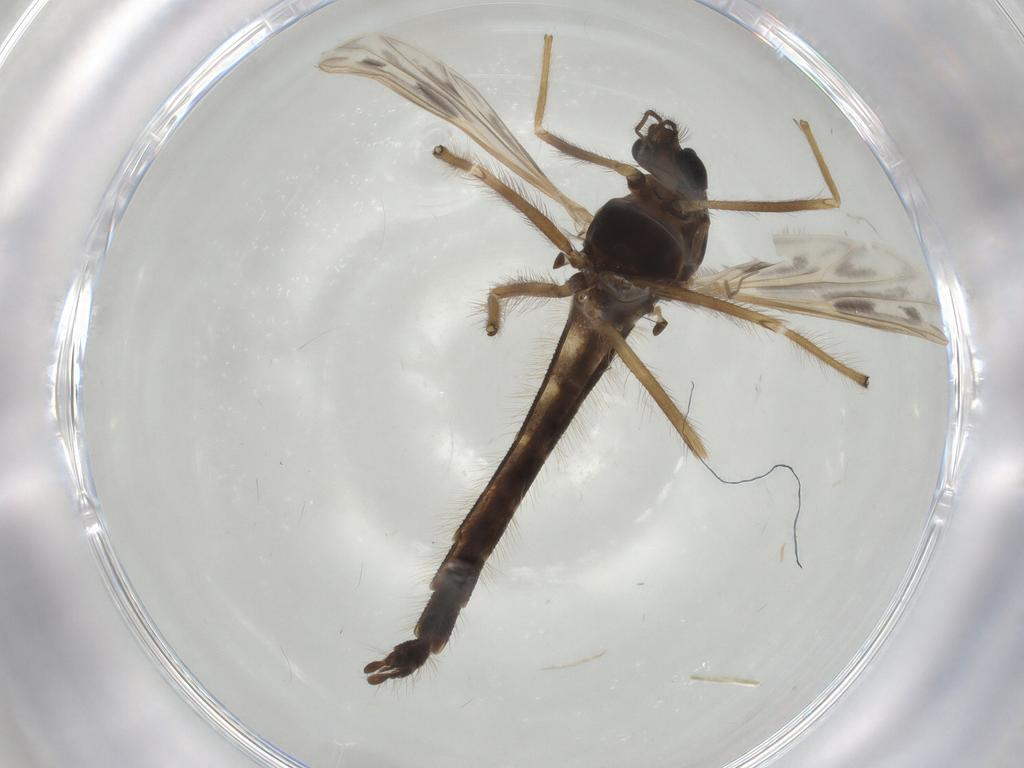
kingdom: Animalia
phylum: Arthropoda
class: Insecta
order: Diptera
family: Chironomidae
